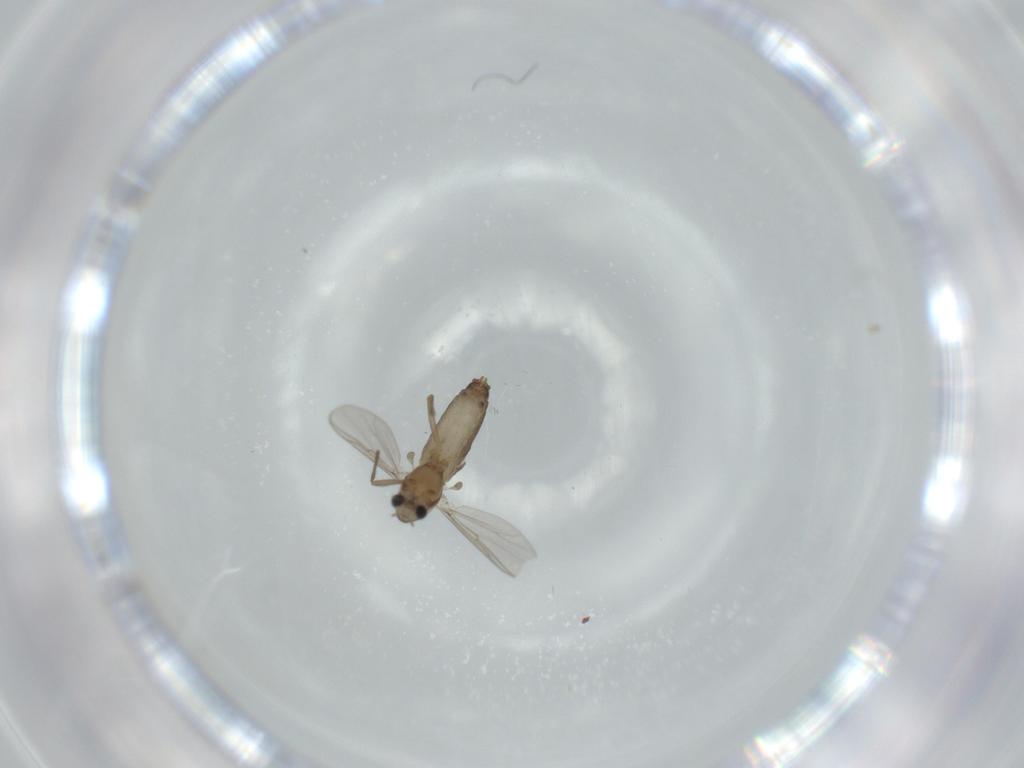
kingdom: Animalia
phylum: Arthropoda
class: Insecta
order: Diptera
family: Chironomidae
